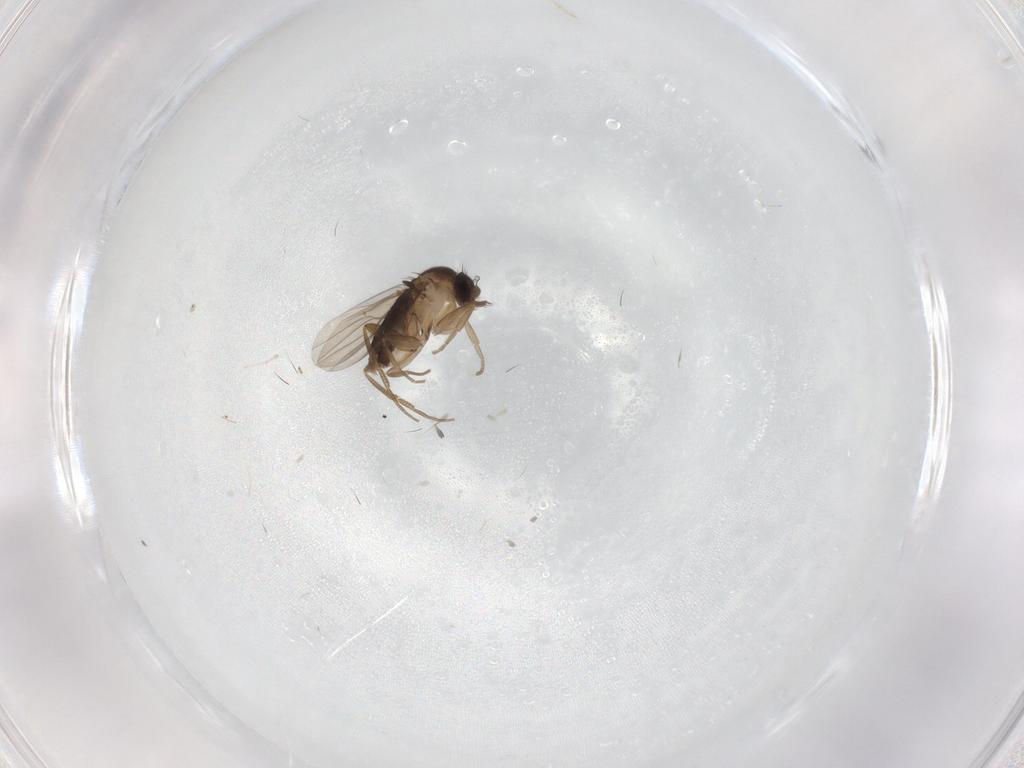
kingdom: Animalia
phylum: Arthropoda
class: Insecta
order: Diptera
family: Phoridae
